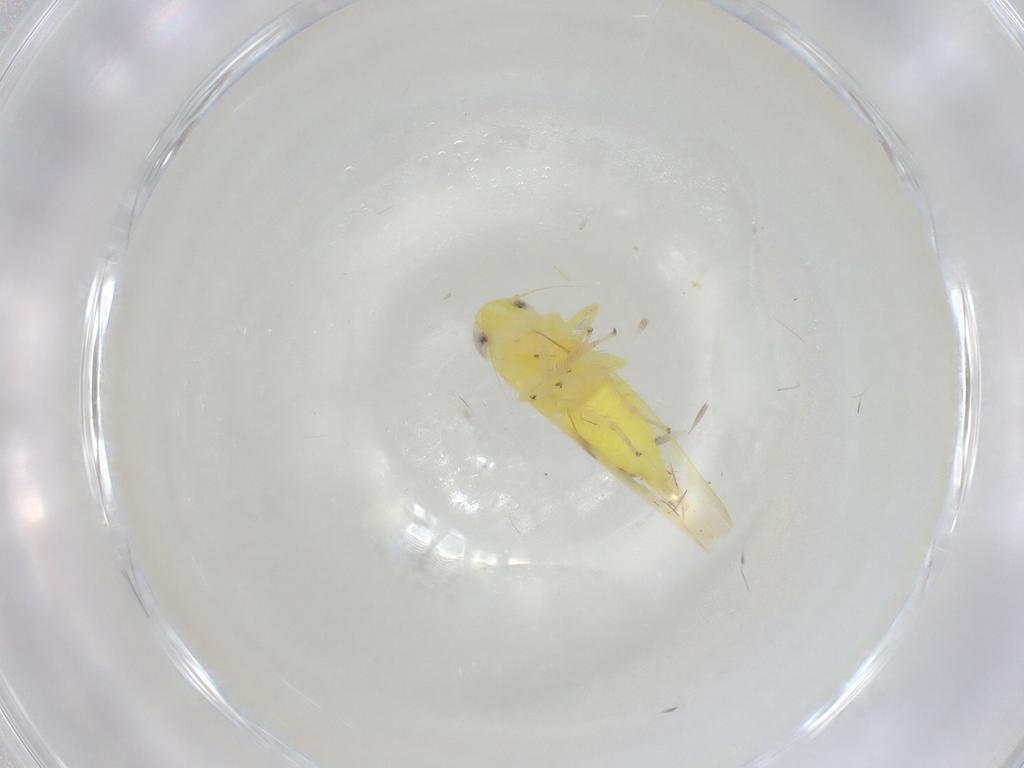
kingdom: Animalia
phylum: Arthropoda
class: Insecta
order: Hemiptera
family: Cicadellidae
